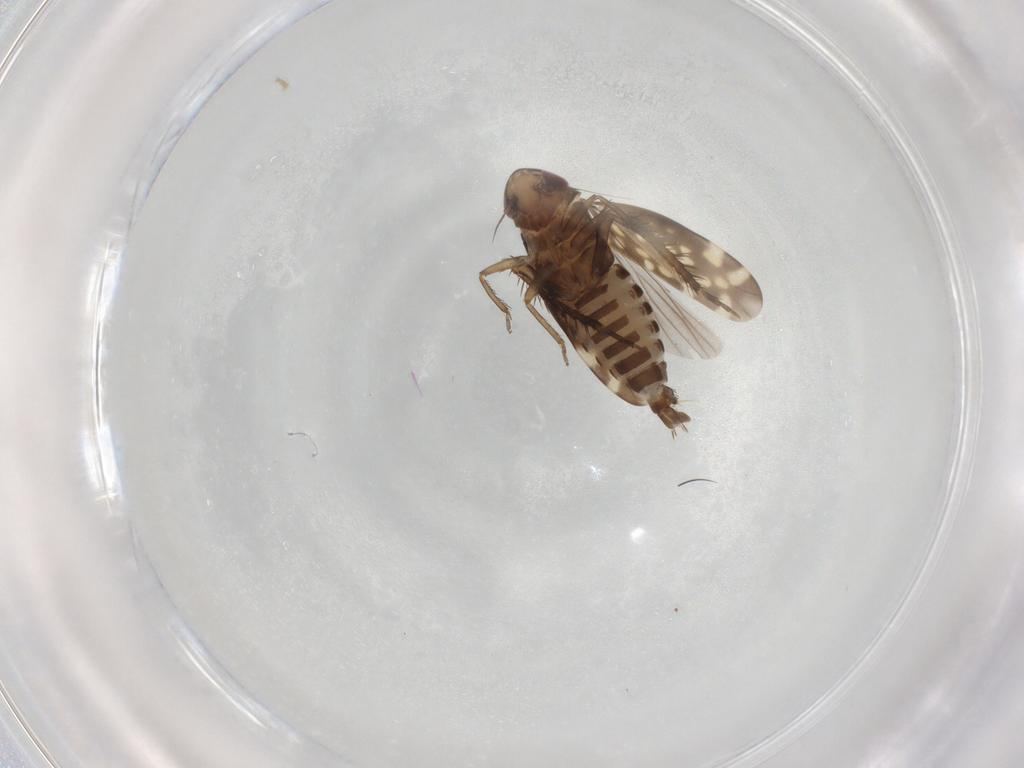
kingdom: Animalia
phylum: Arthropoda
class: Insecta
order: Hemiptera
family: Cicadellidae
